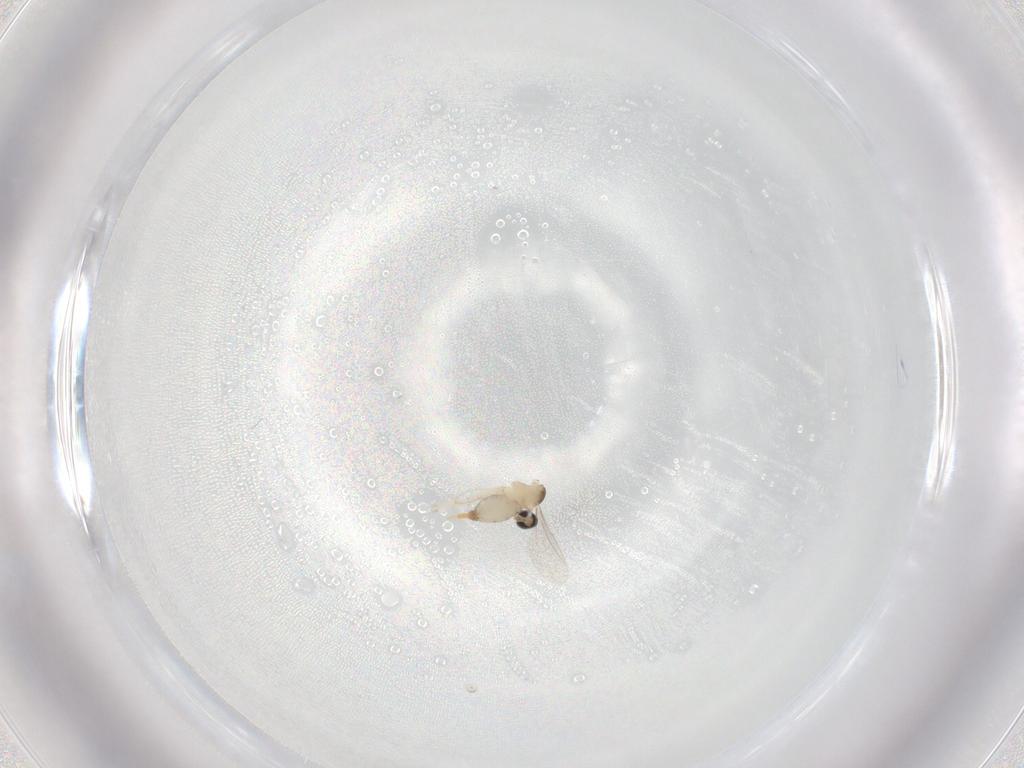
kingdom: Animalia
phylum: Arthropoda
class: Insecta
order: Diptera
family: Cecidomyiidae
